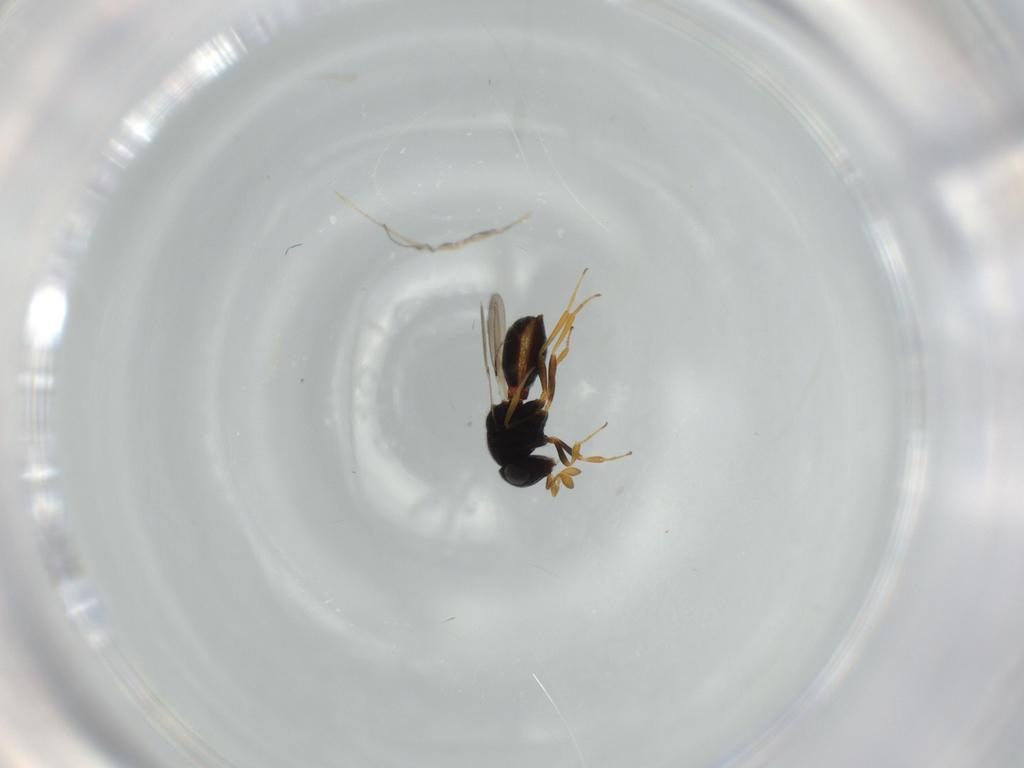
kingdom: Animalia
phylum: Arthropoda
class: Insecta
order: Hymenoptera
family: Scelionidae
